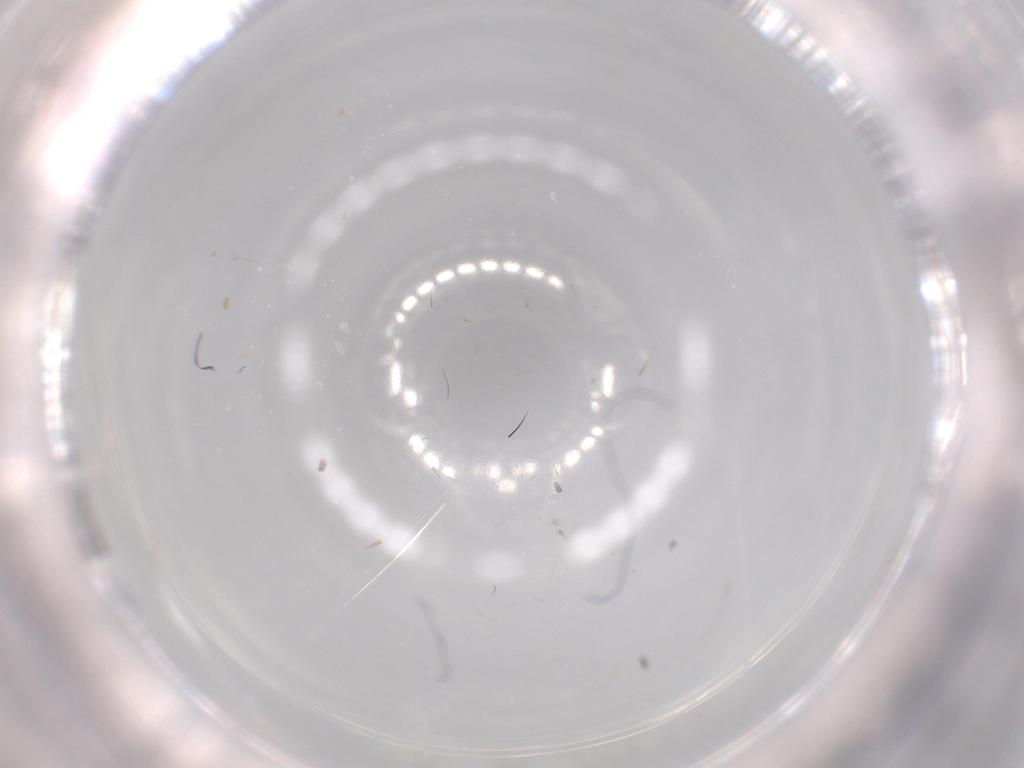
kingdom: Animalia
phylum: Arthropoda
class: Insecta
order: Diptera
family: Psychodidae
